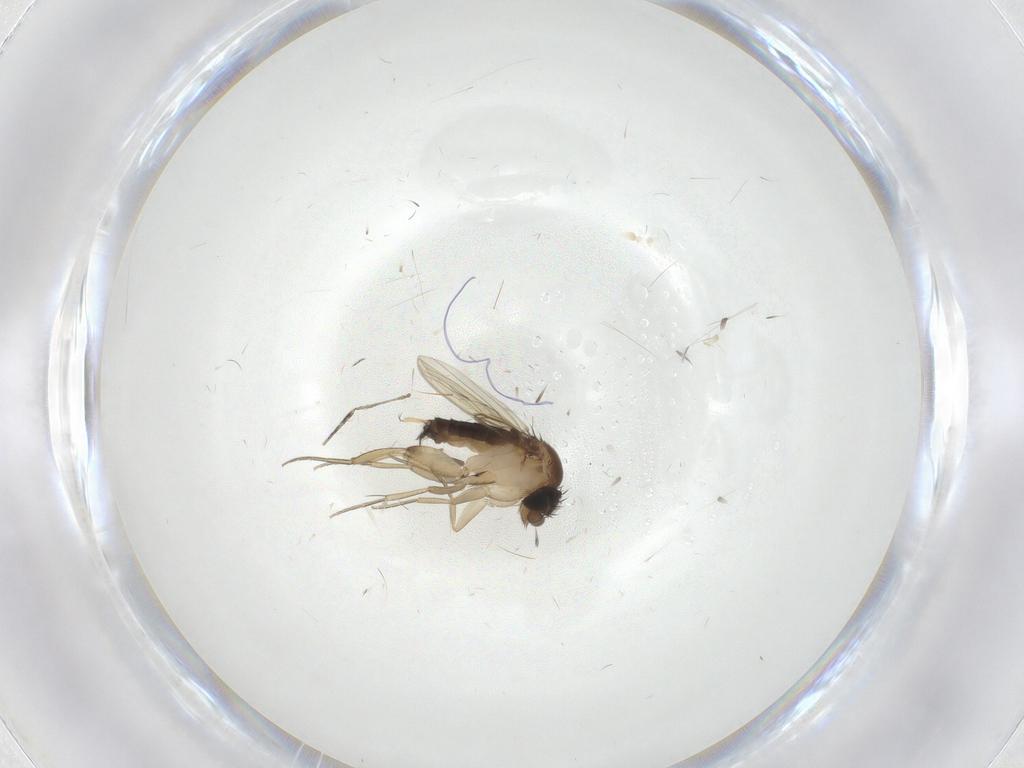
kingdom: Animalia
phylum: Arthropoda
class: Insecta
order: Diptera
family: Phoridae
